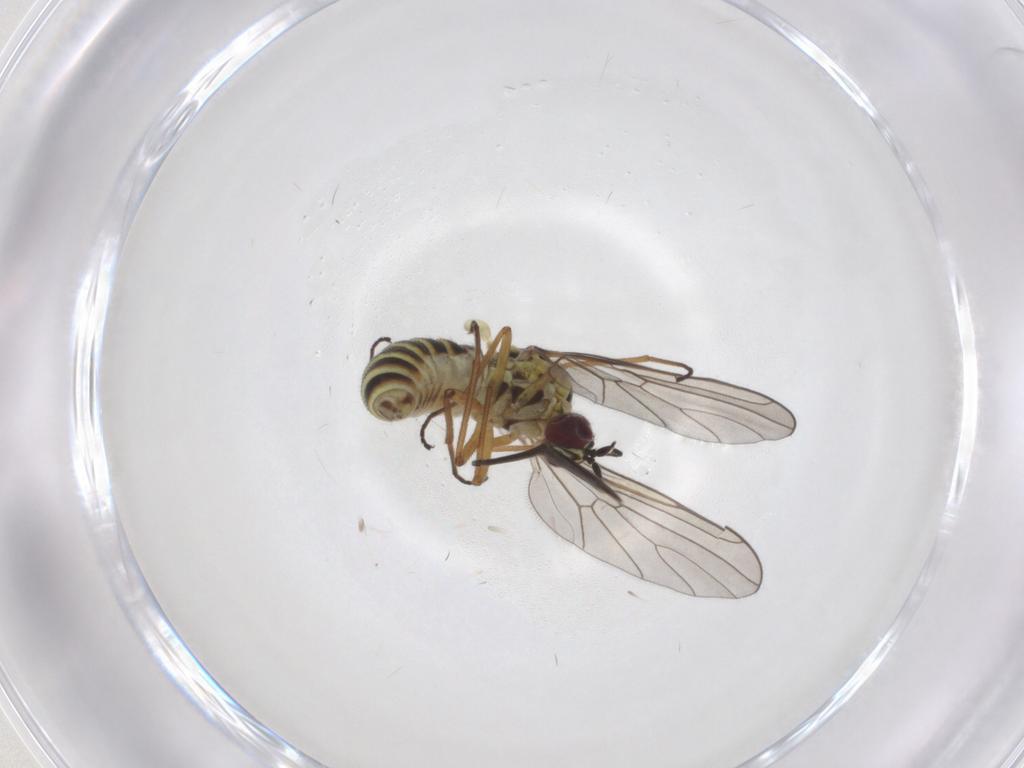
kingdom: Animalia
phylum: Arthropoda
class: Insecta
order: Diptera
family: Bombyliidae
